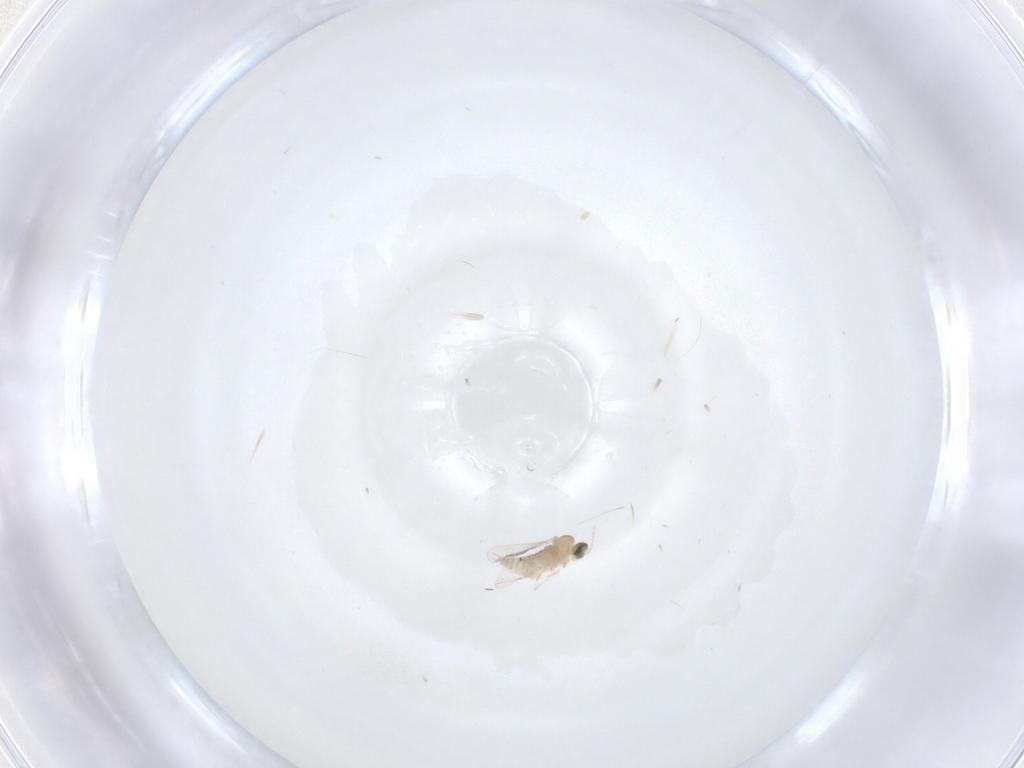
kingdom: Animalia
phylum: Arthropoda
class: Insecta
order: Diptera
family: Cecidomyiidae
